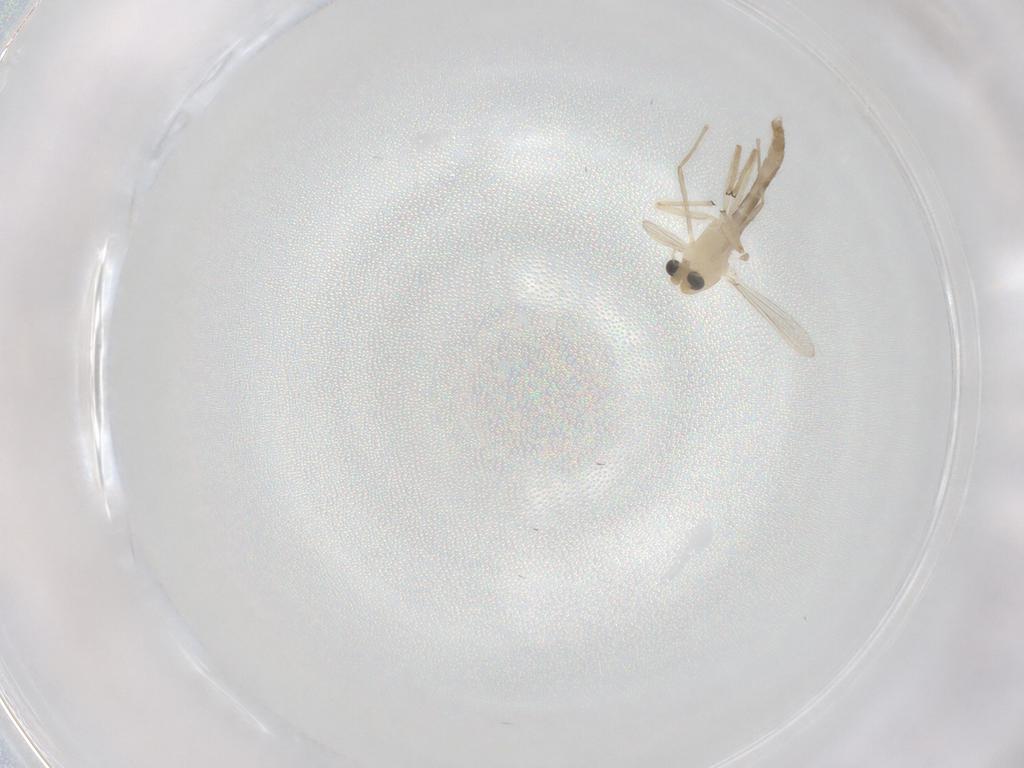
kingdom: Animalia
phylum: Arthropoda
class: Insecta
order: Diptera
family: Chironomidae
